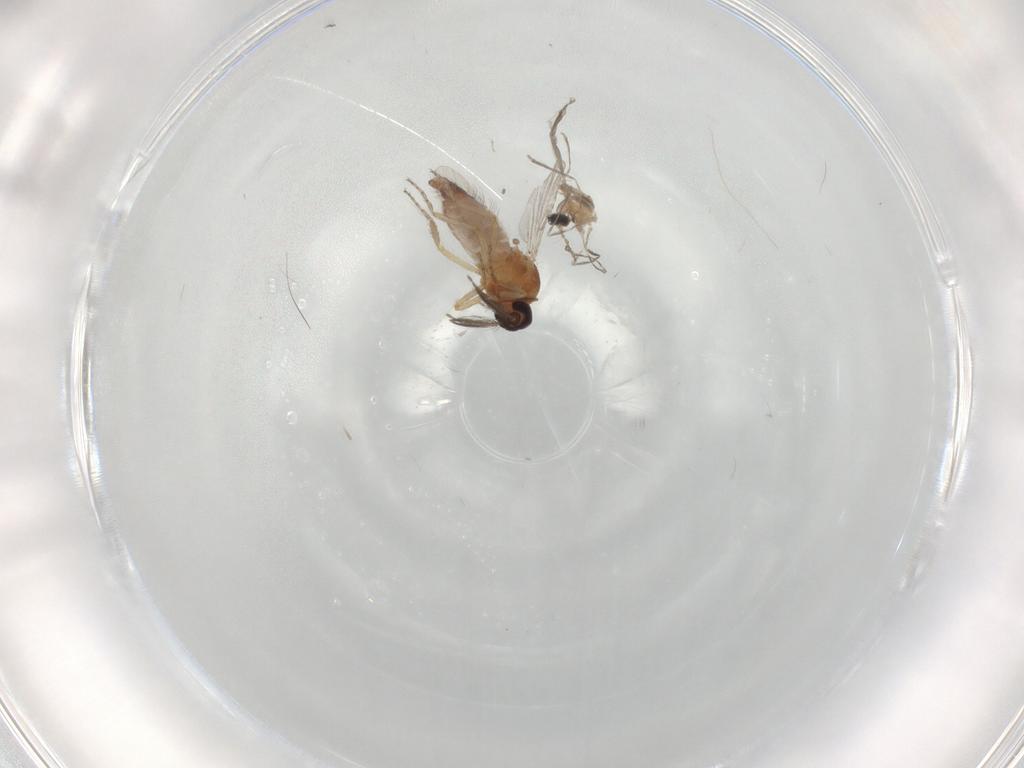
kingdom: Animalia
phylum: Arthropoda
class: Insecta
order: Diptera
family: Ceratopogonidae
